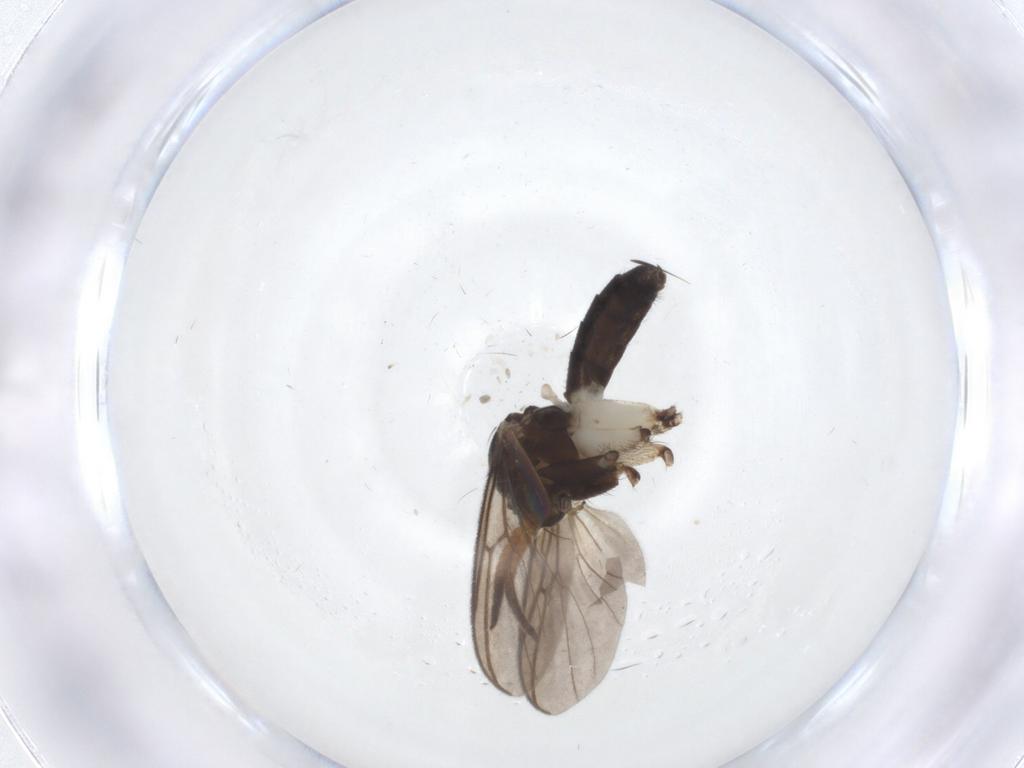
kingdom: Animalia
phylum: Arthropoda
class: Insecta
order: Diptera
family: Mycetophilidae
